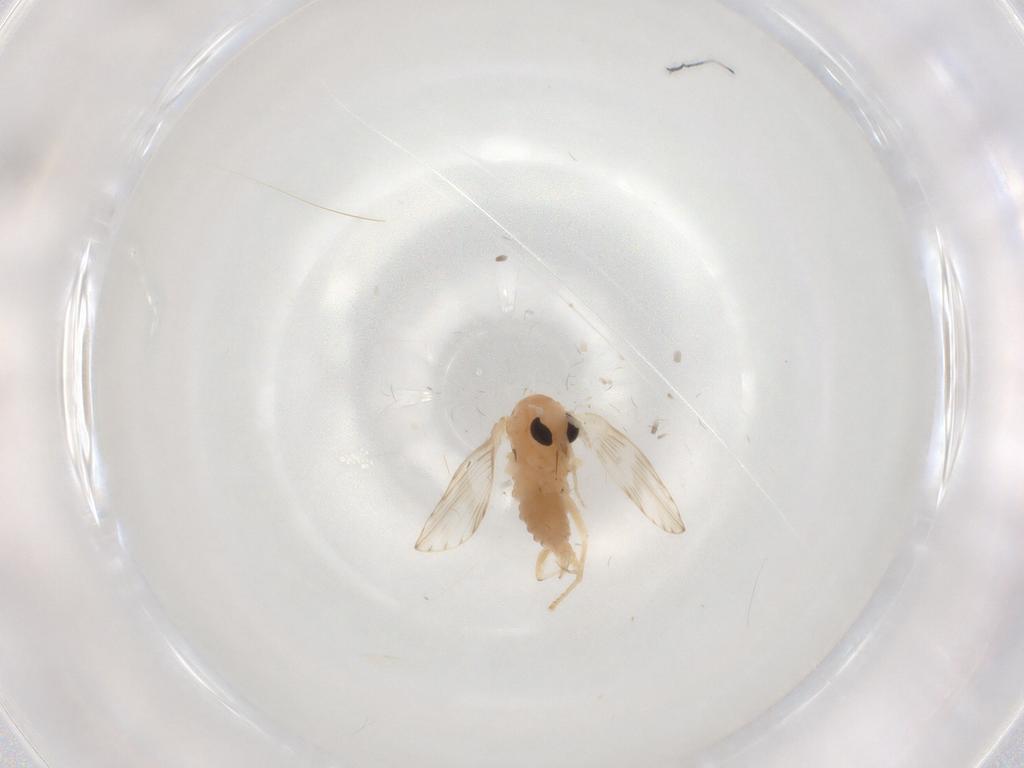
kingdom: Animalia
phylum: Arthropoda
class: Insecta
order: Diptera
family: Psychodidae
